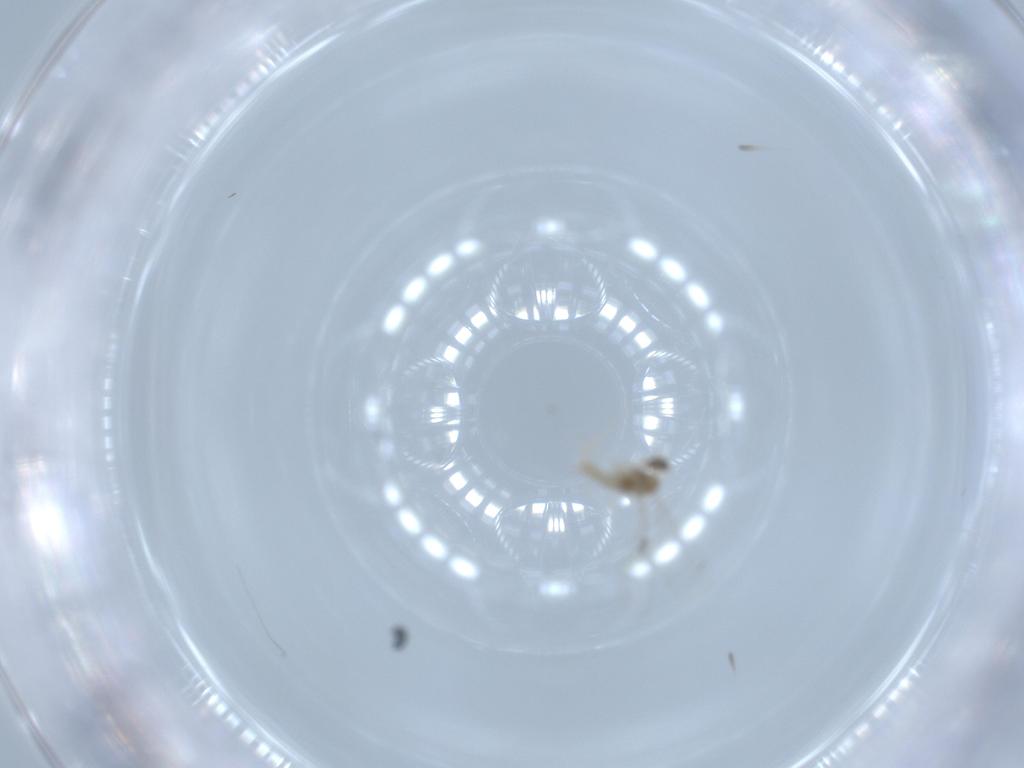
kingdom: Animalia
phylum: Arthropoda
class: Insecta
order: Diptera
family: Cecidomyiidae
